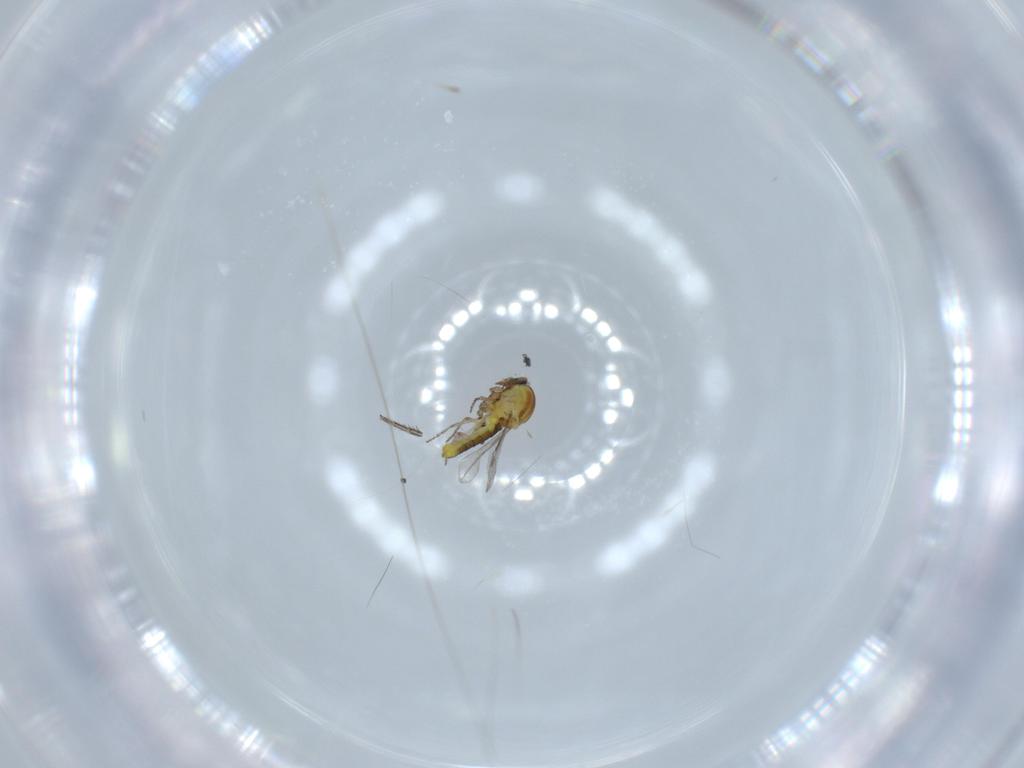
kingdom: Animalia
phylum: Arthropoda
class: Insecta
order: Diptera
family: Ceratopogonidae
